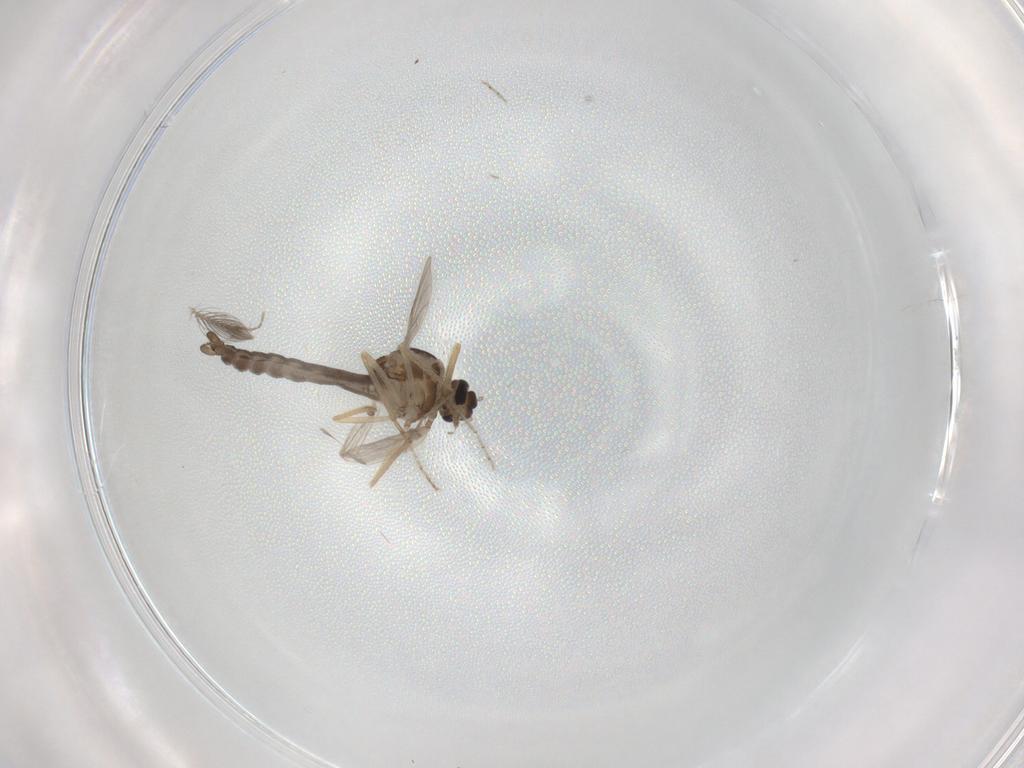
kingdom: Animalia
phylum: Arthropoda
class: Insecta
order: Diptera
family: Ceratopogonidae
